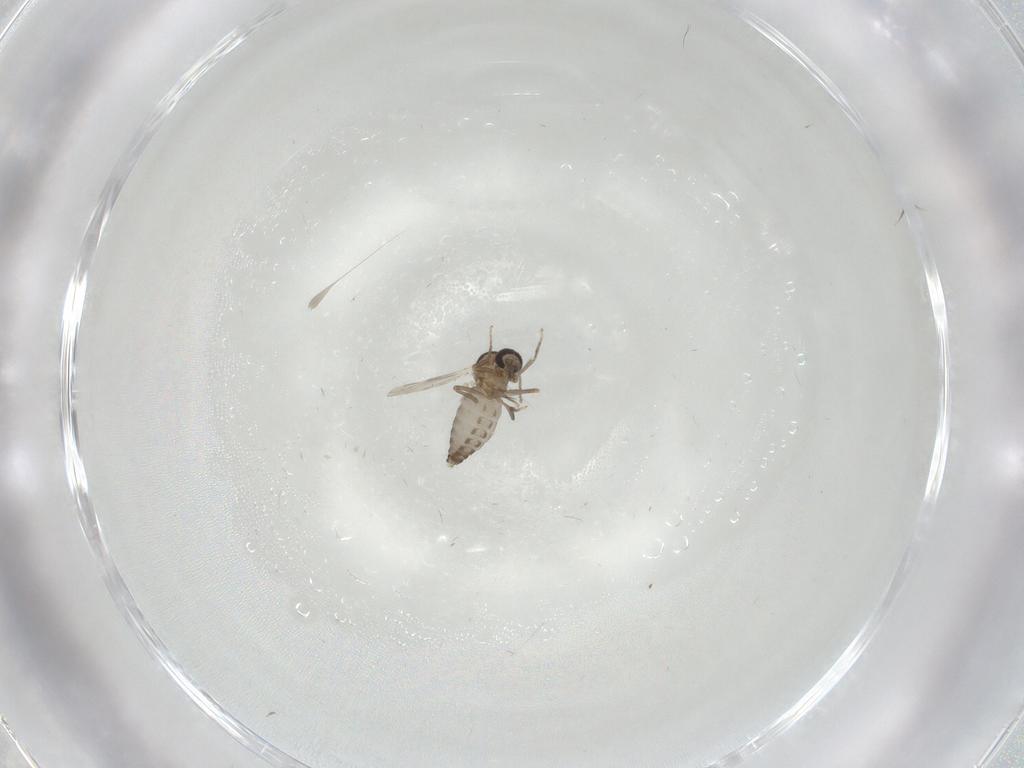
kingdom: Animalia
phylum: Arthropoda
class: Insecta
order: Diptera
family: Ceratopogonidae
